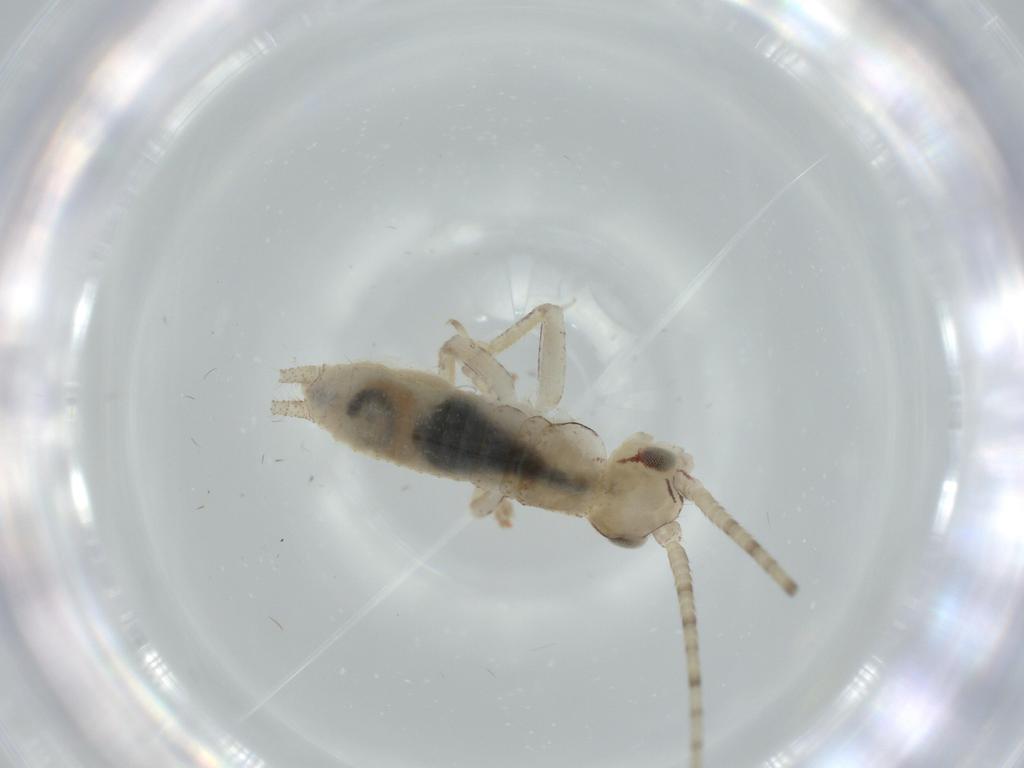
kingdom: Animalia
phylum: Arthropoda
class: Insecta
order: Orthoptera
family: Gryllidae
